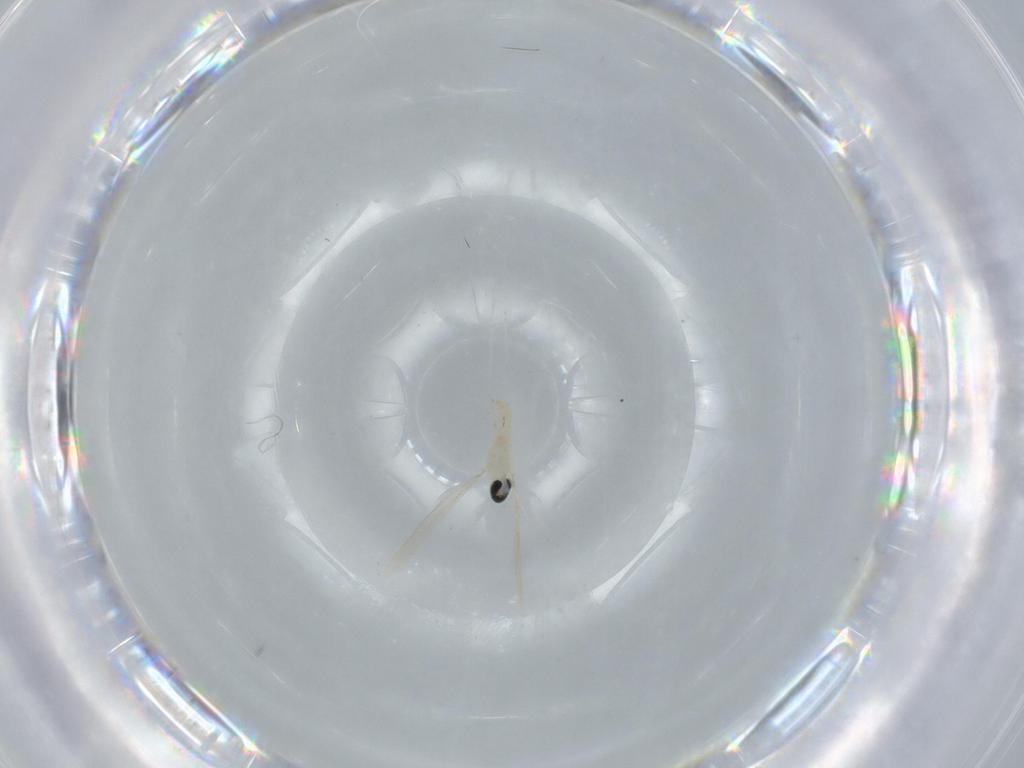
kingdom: Animalia
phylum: Arthropoda
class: Insecta
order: Diptera
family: Cecidomyiidae
